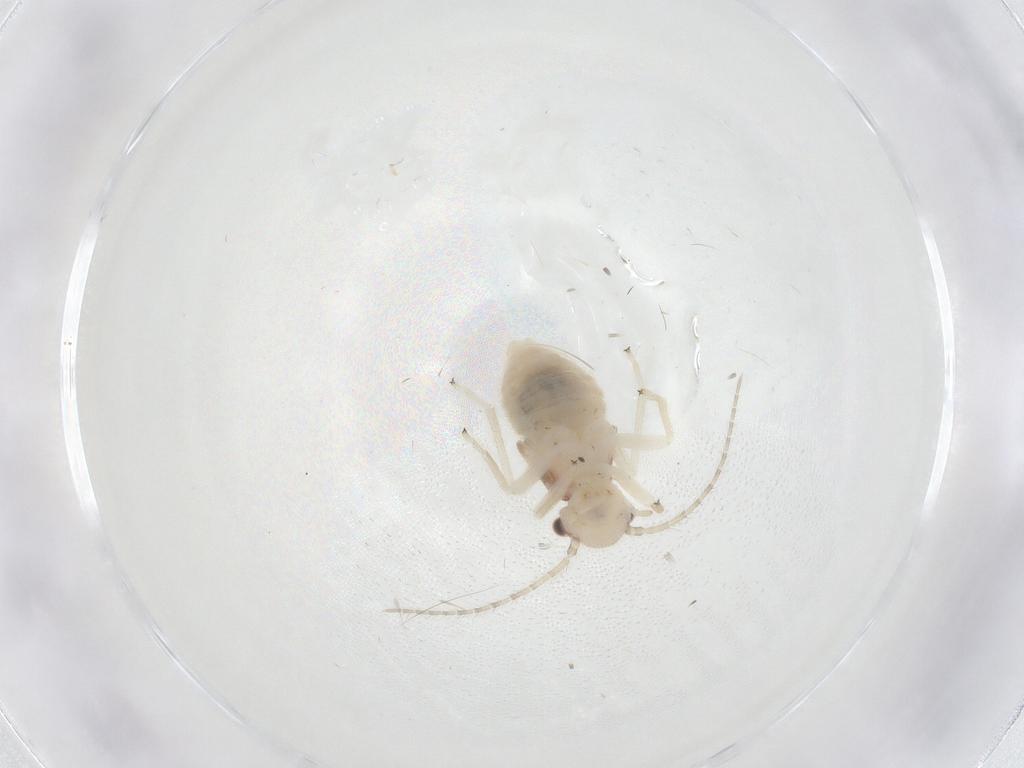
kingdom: Animalia
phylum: Arthropoda
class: Insecta
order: Psocodea
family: Amphipsocidae
